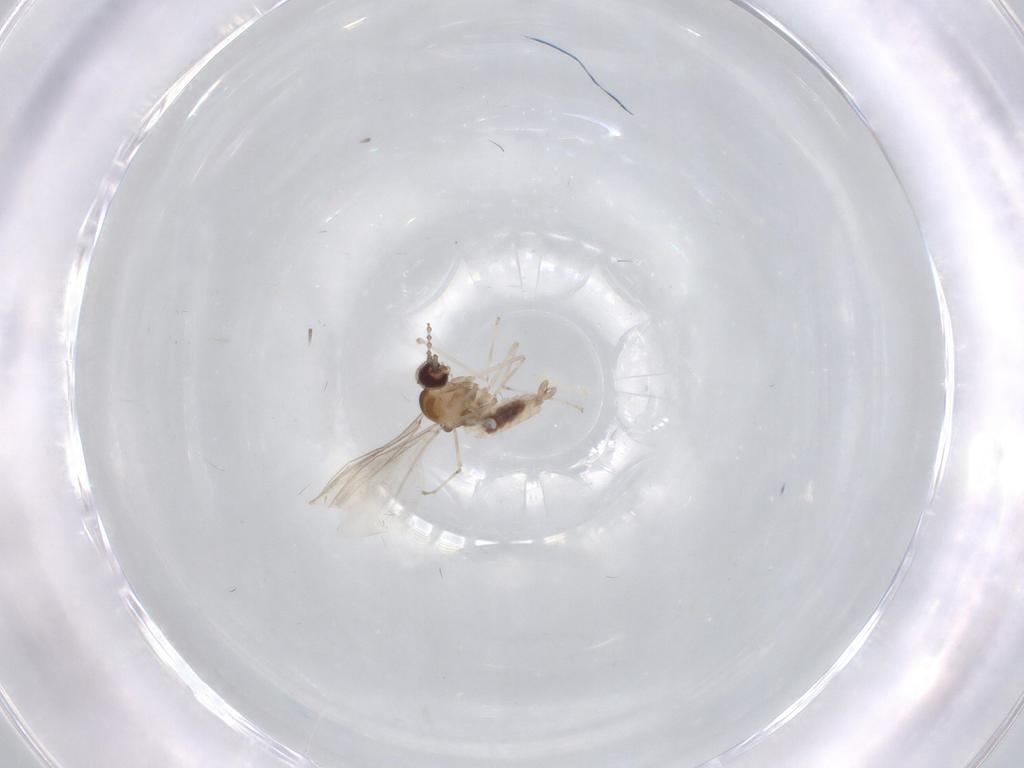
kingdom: Animalia
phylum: Arthropoda
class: Insecta
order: Diptera
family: Cecidomyiidae
